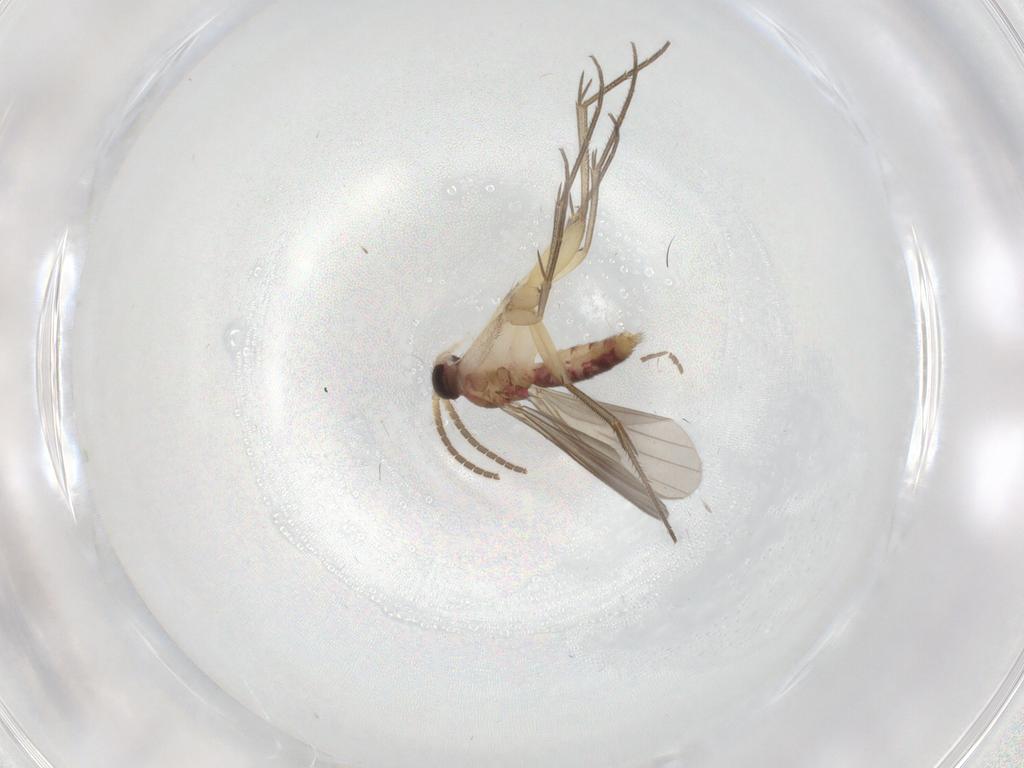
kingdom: Animalia
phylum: Arthropoda
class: Insecta
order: Diptera
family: Mycetophilidae
